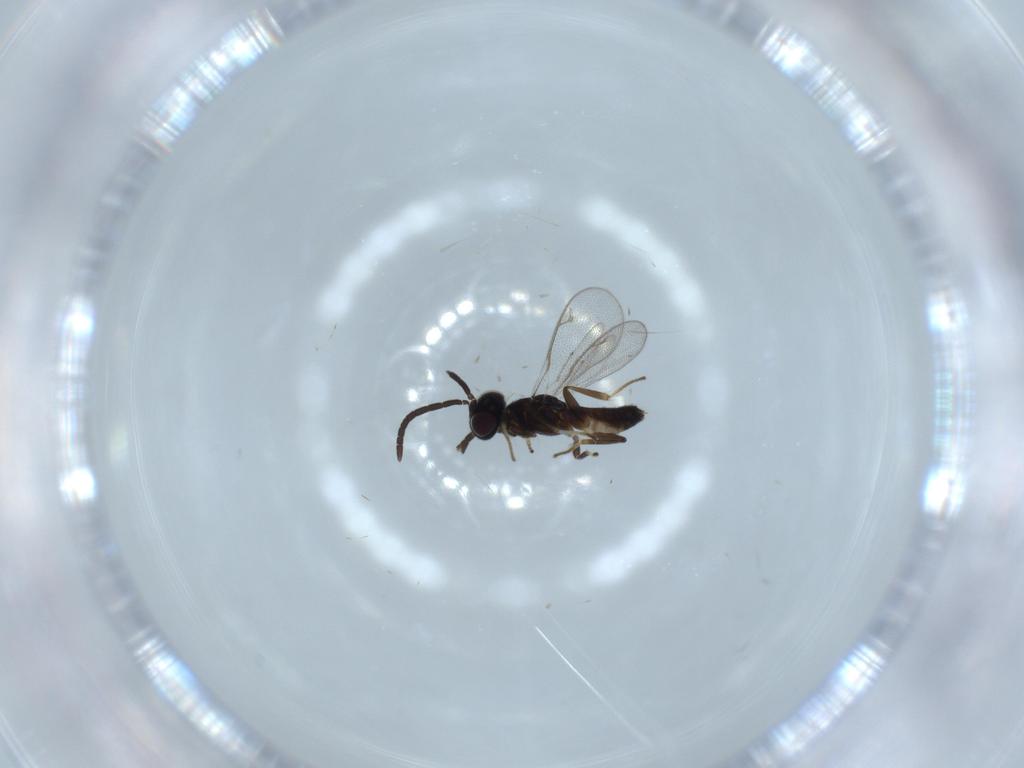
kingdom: Animalia
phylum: Arthropoda
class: Insecta
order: Hymenoptera
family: Eupelmidae
